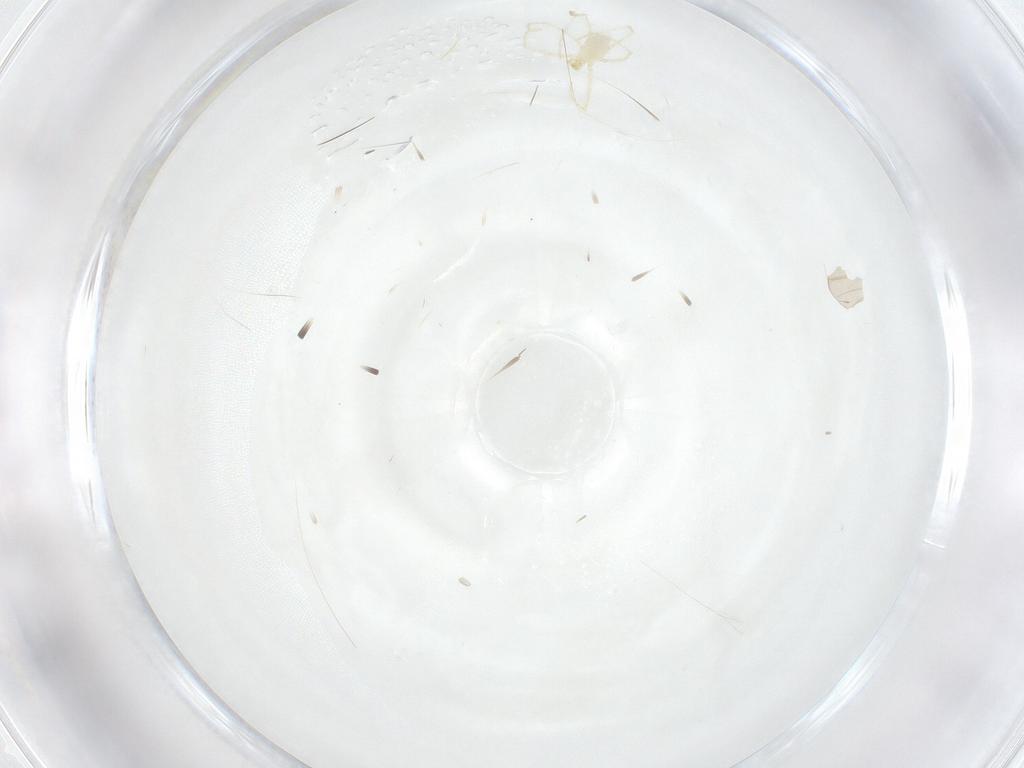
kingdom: Animalia
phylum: Arthropoda
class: Arachnida
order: Trombidiformes
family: Erythraeidae
